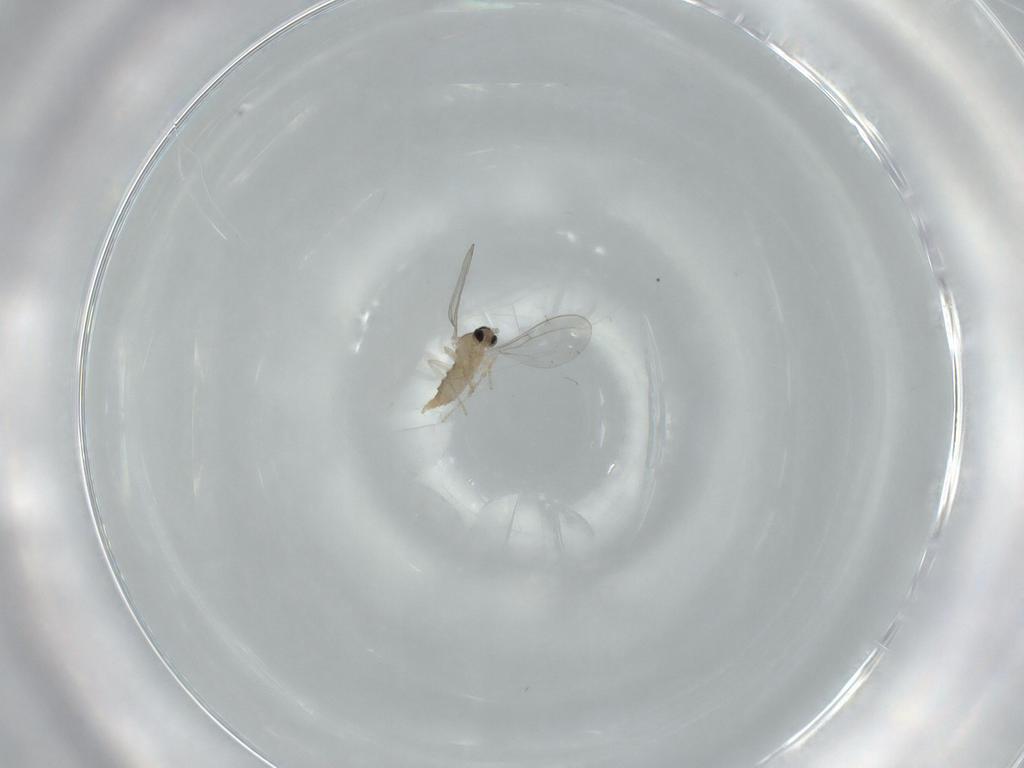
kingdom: Animalia
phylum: Arthropoda
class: Insecta
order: Diptera
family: Cecidomyiidae
